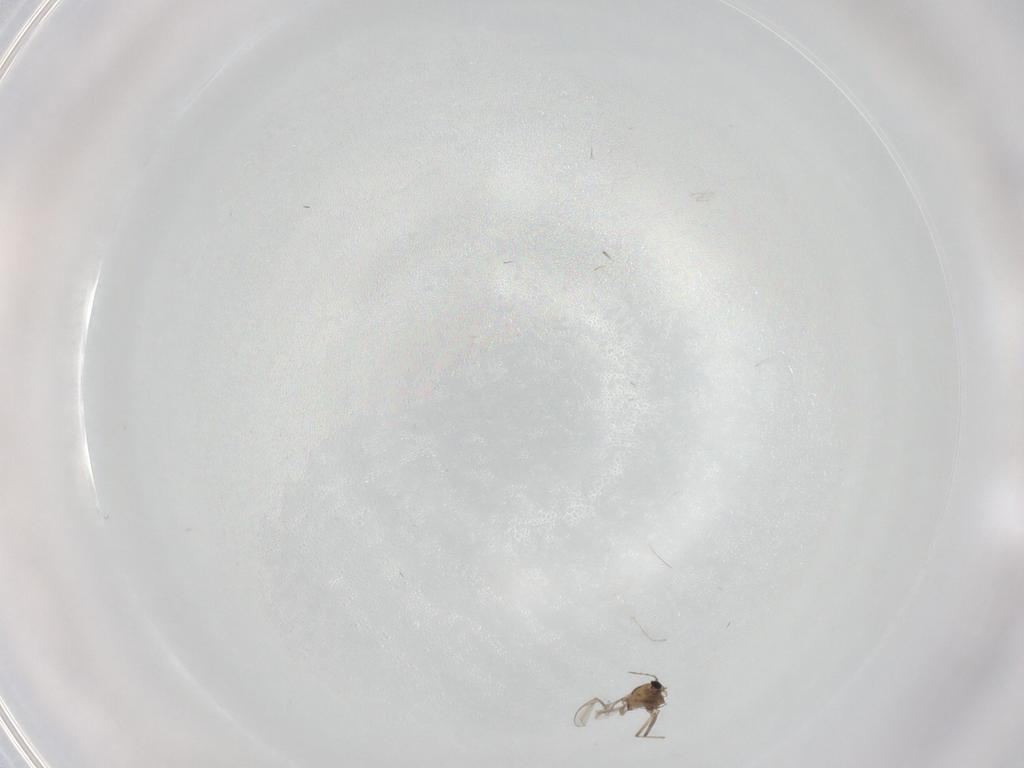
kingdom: Animalia
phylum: Arthropoda
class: Insecta
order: Diptera
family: Chironomidae
